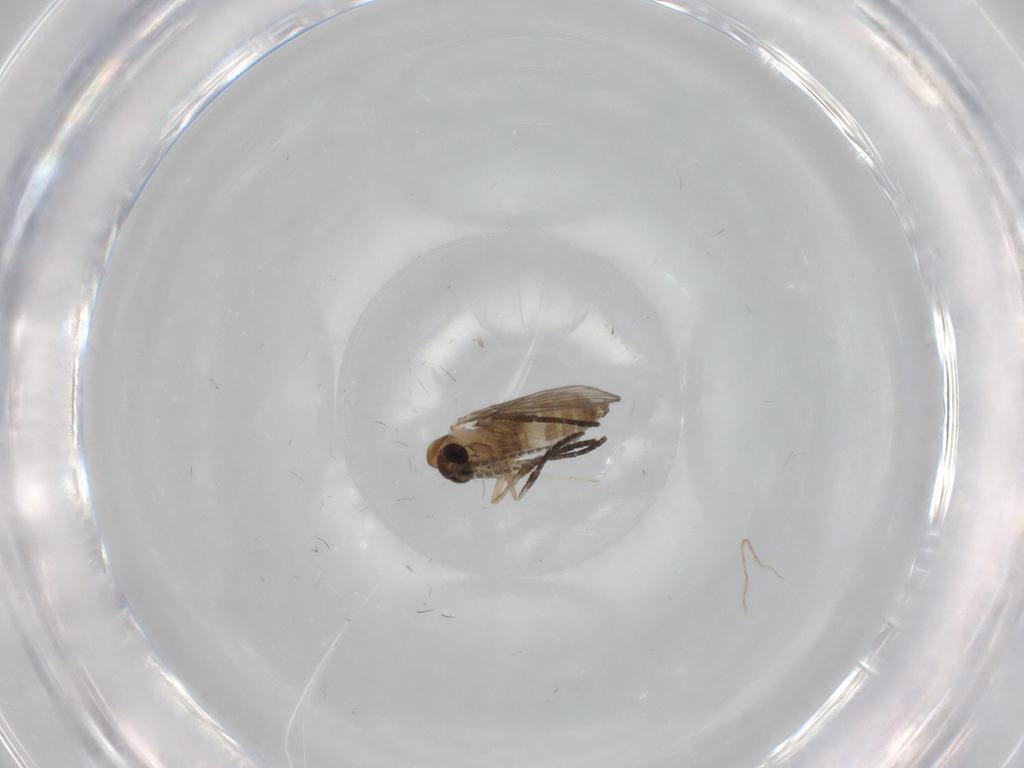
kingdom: Animalia
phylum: Arthropoda
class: Insecta
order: Diptera
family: Psychodidae
